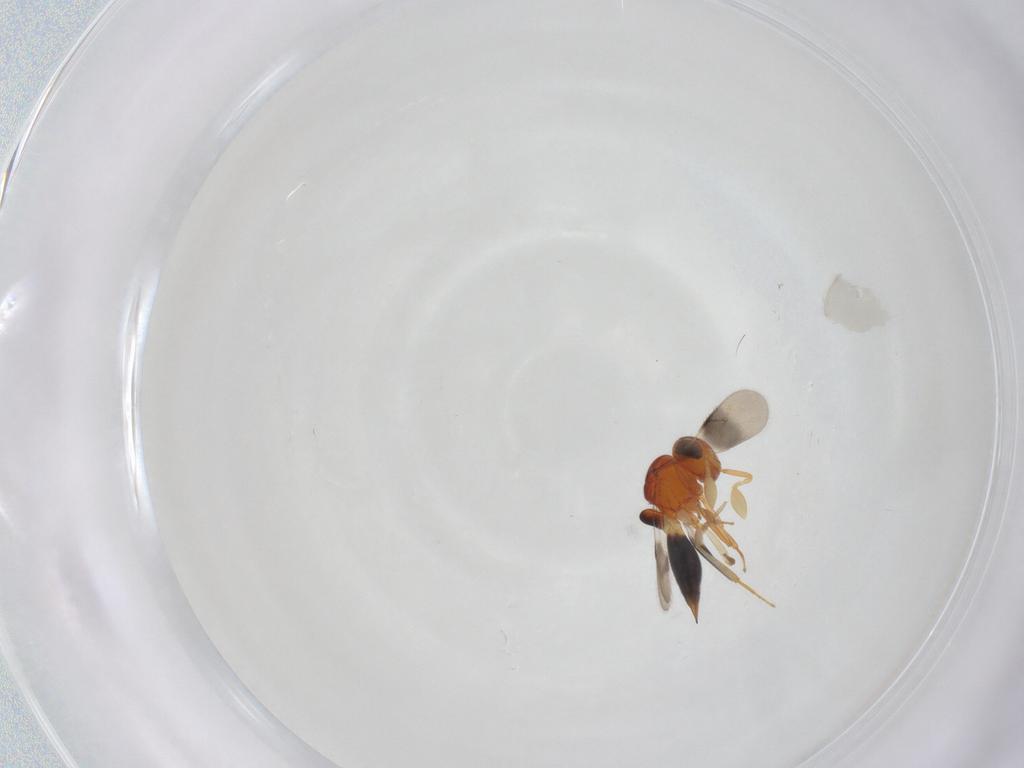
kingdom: Animalia
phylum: Arthropoda
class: Insecta
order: Hymenoptera
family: Scelionidae
